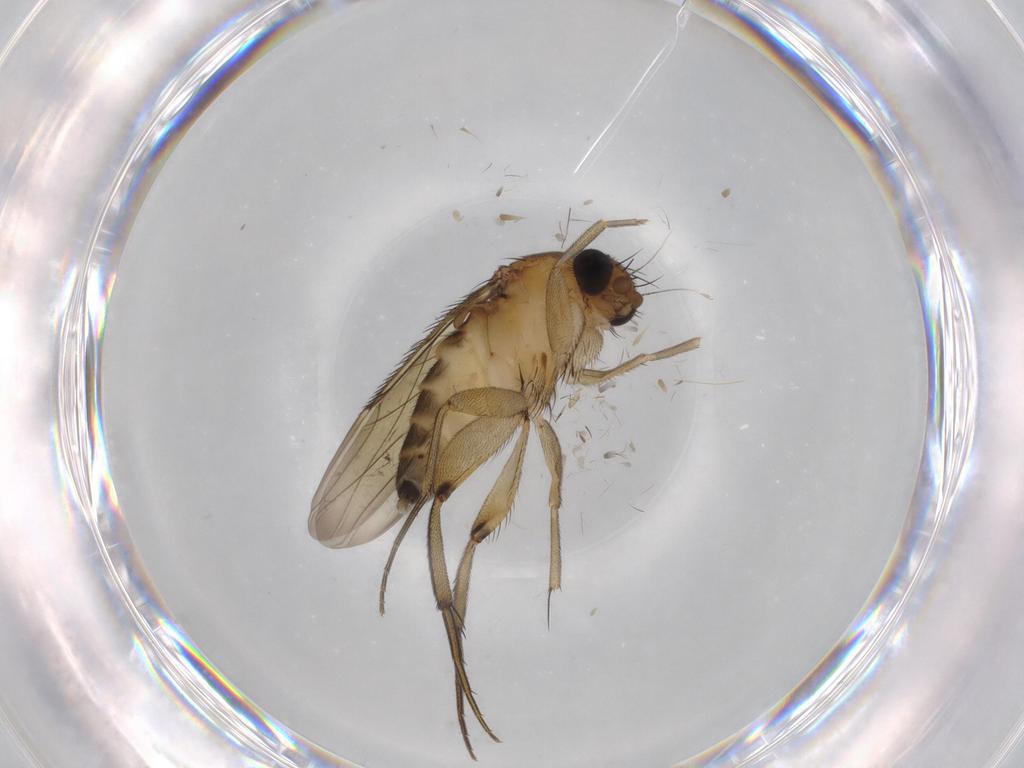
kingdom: Animalia
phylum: Arthropoda
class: Insecta
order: Diptera
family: Phoridae
